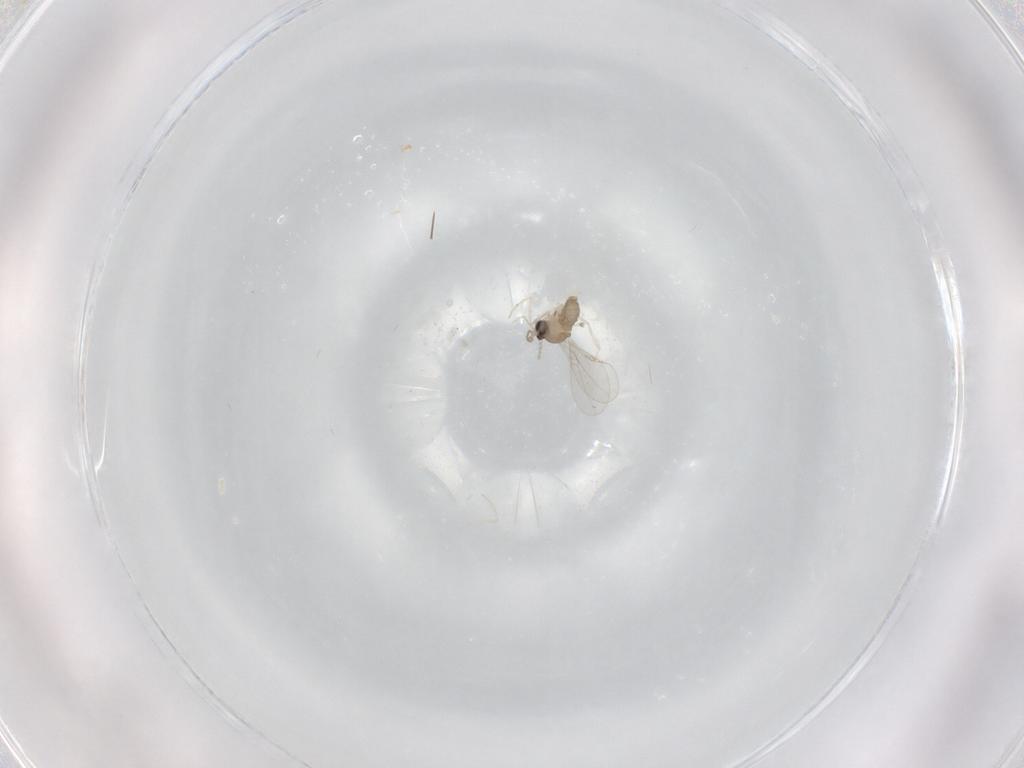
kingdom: Animalia
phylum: Arthropoda
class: Insecta
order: Diptera
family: Cecidomyiidae
